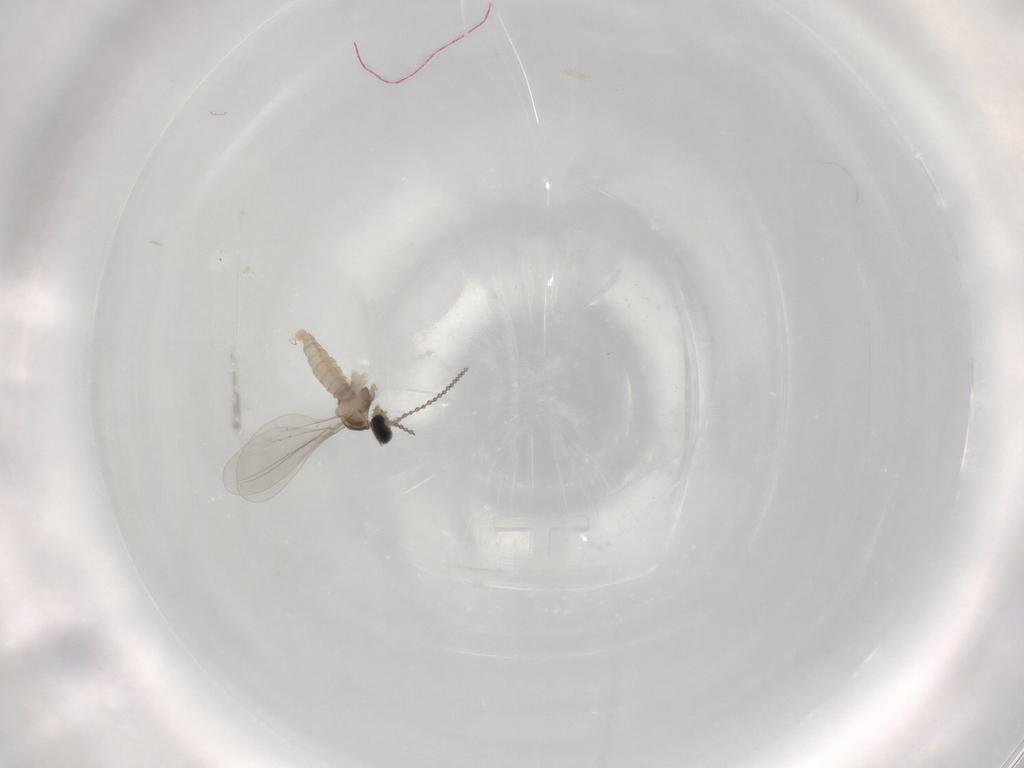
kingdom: Animalia
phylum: Arthropoda
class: Insecta
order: Diptera
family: Cecidomyiidae
